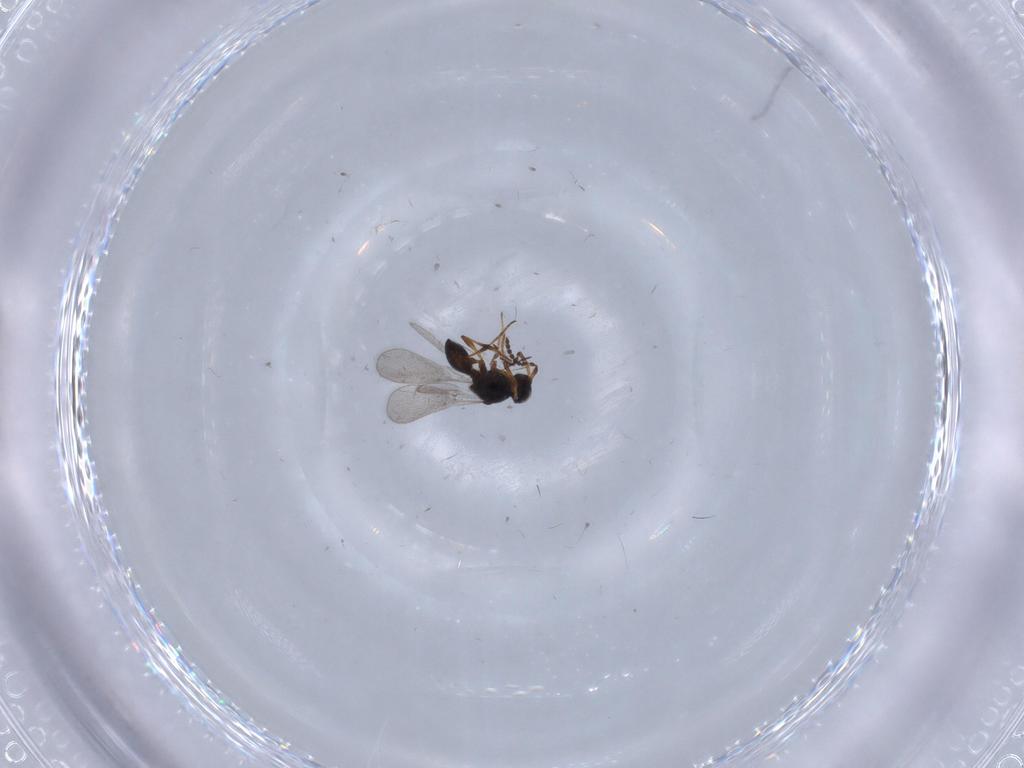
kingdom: Animalia
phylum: Arthropoda
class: Insecta
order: Hymenoptera
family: Platygastridae
